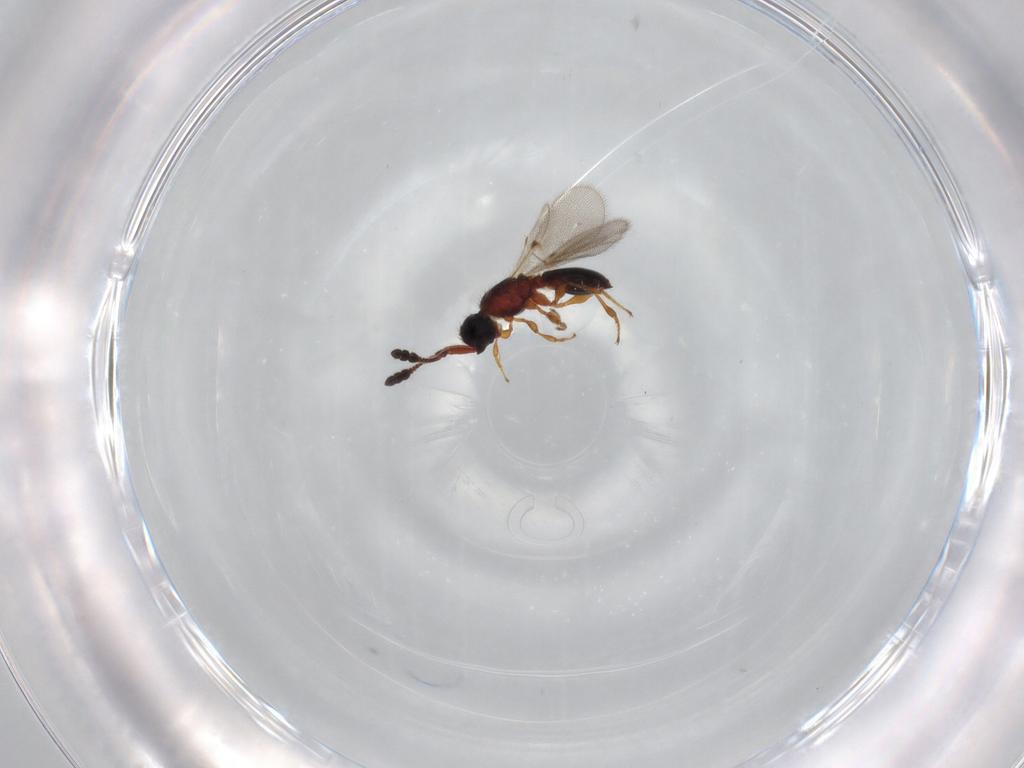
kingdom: Animalia
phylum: Arthropoda
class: Insecta
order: Hymenoptera
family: Diapriidae
